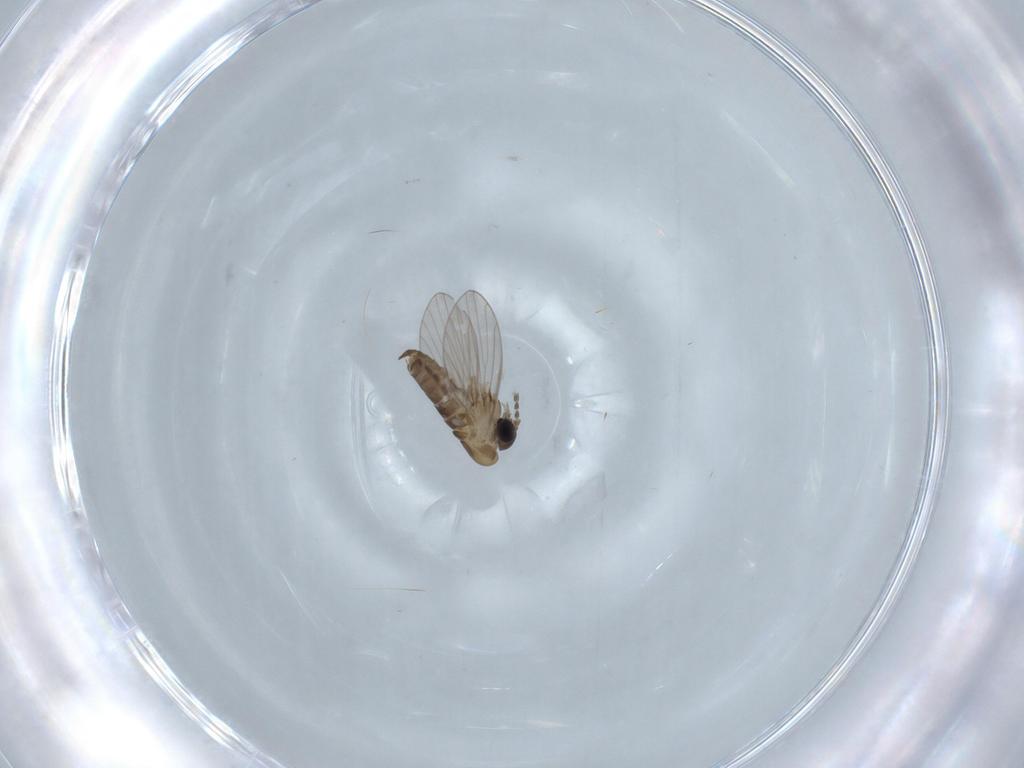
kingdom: Animalia
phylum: Arthropoda
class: Insecta
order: Diptera
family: Psychodidae
